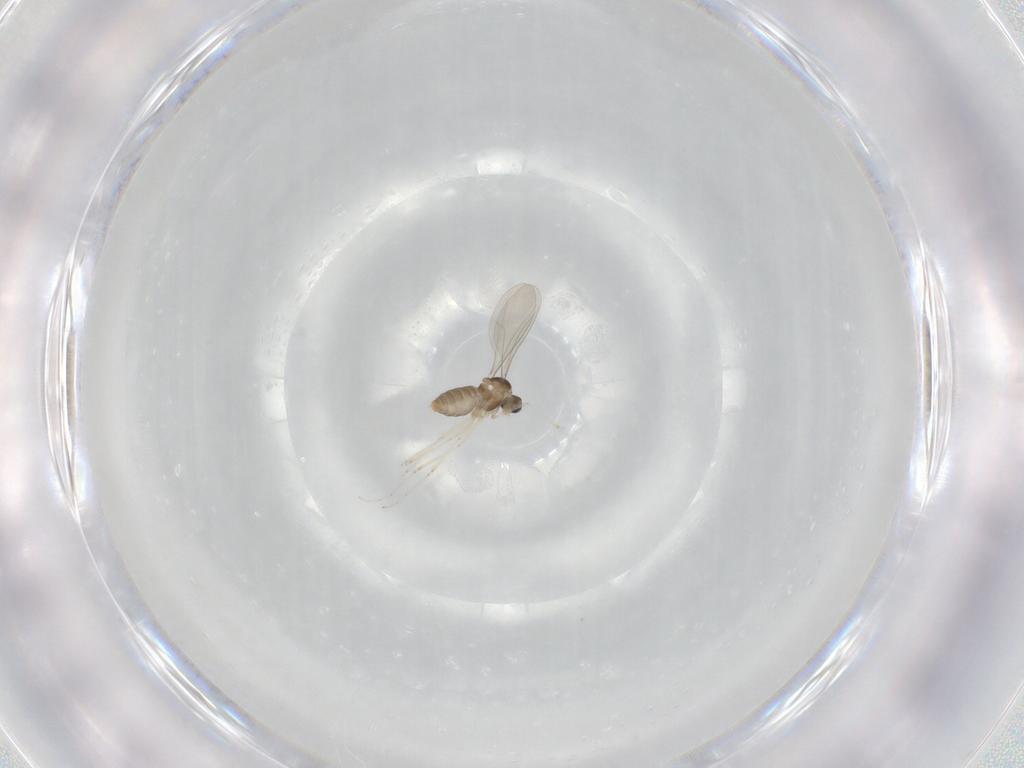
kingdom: Animalia
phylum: Arthropoda
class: Insecta
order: Diptera
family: Cecidomyiidae
